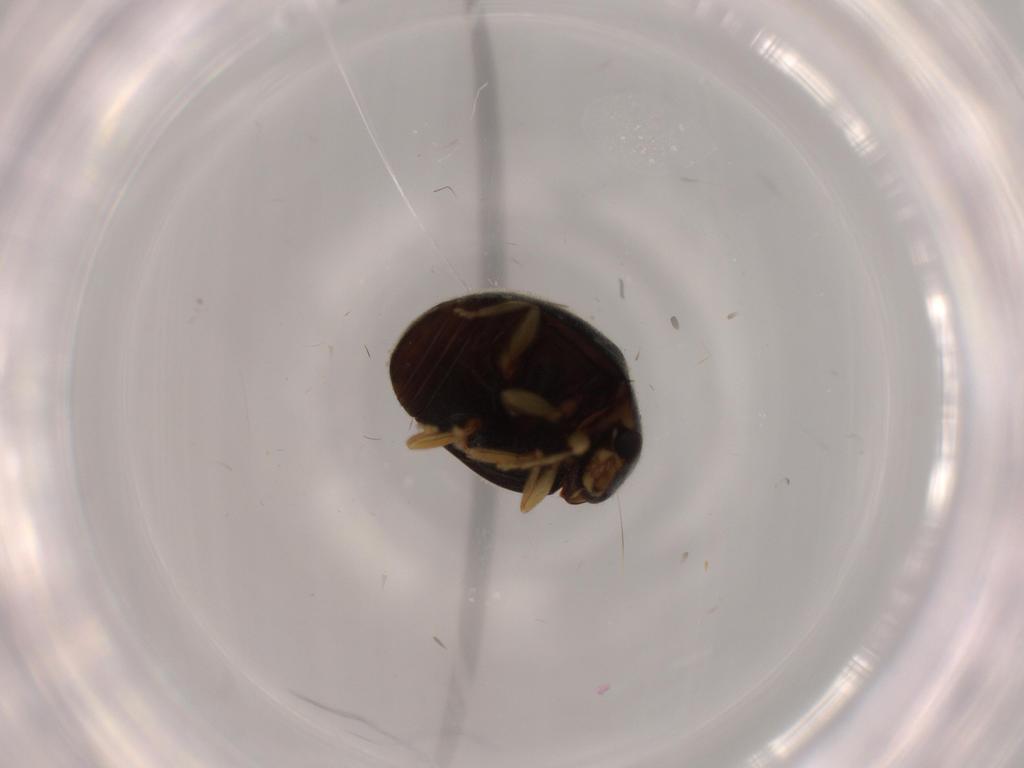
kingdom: Animalia
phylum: Arthropoda
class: Insecta
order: Coleoptera
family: Coccinellidae
